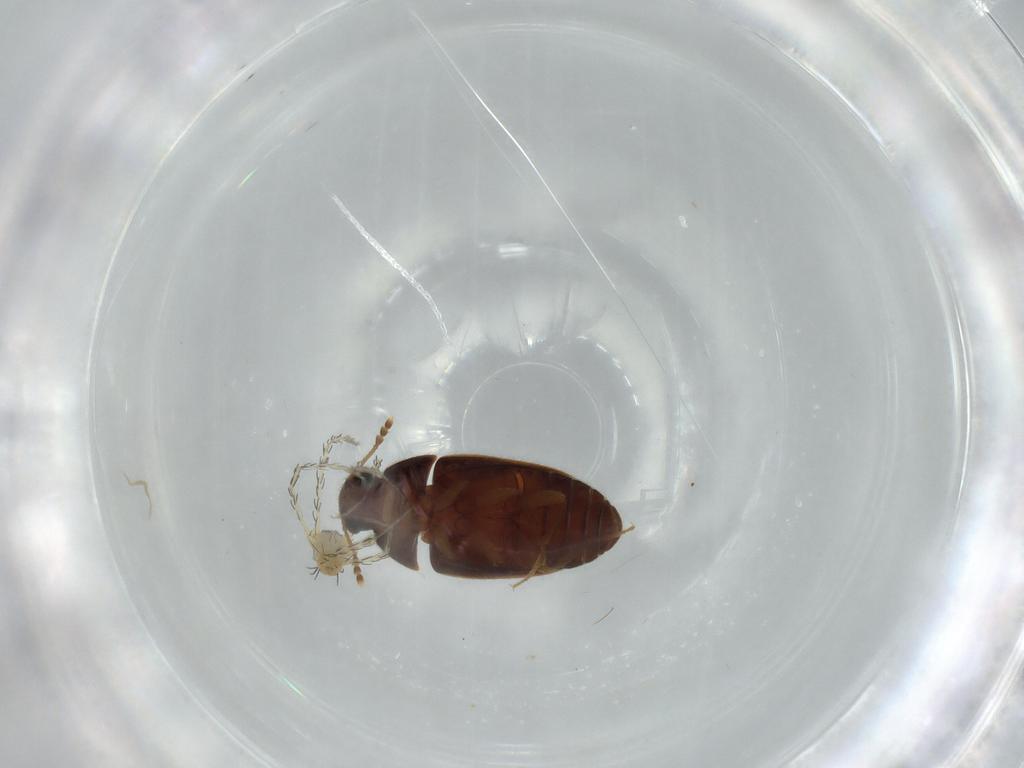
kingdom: Animalia
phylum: Arthropoda
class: Insecta
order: Coleoptera
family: Mycetophagidae
